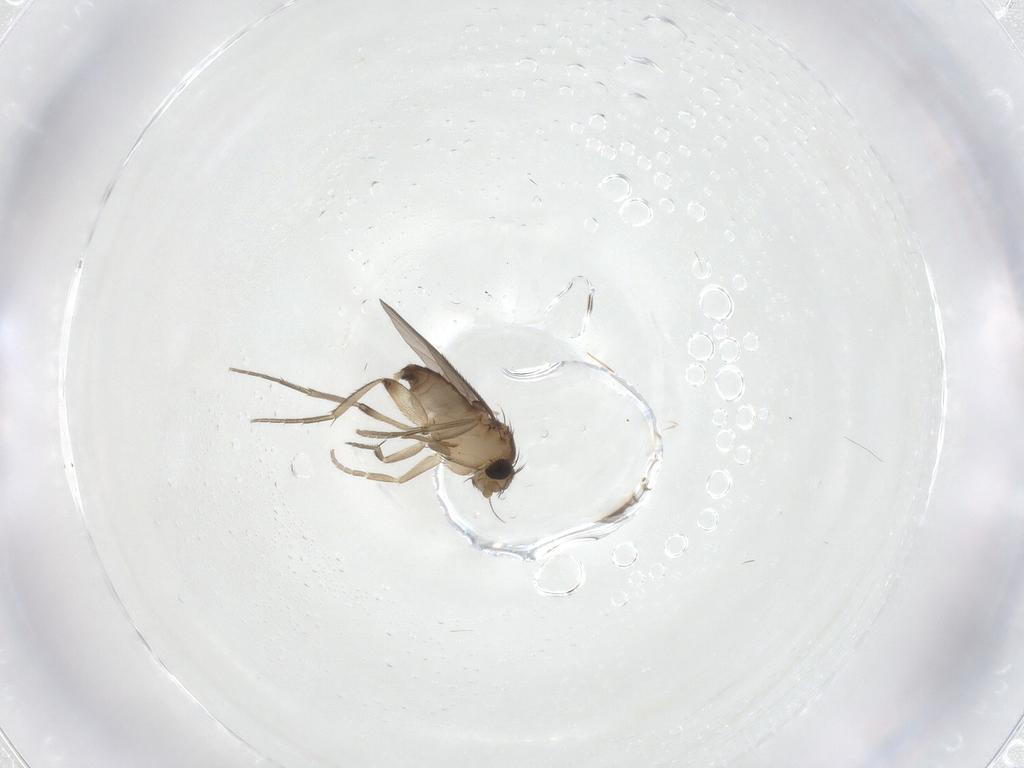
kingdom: Animalia
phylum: Arthropoda
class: Insecta
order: Diptera
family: Phoridae
